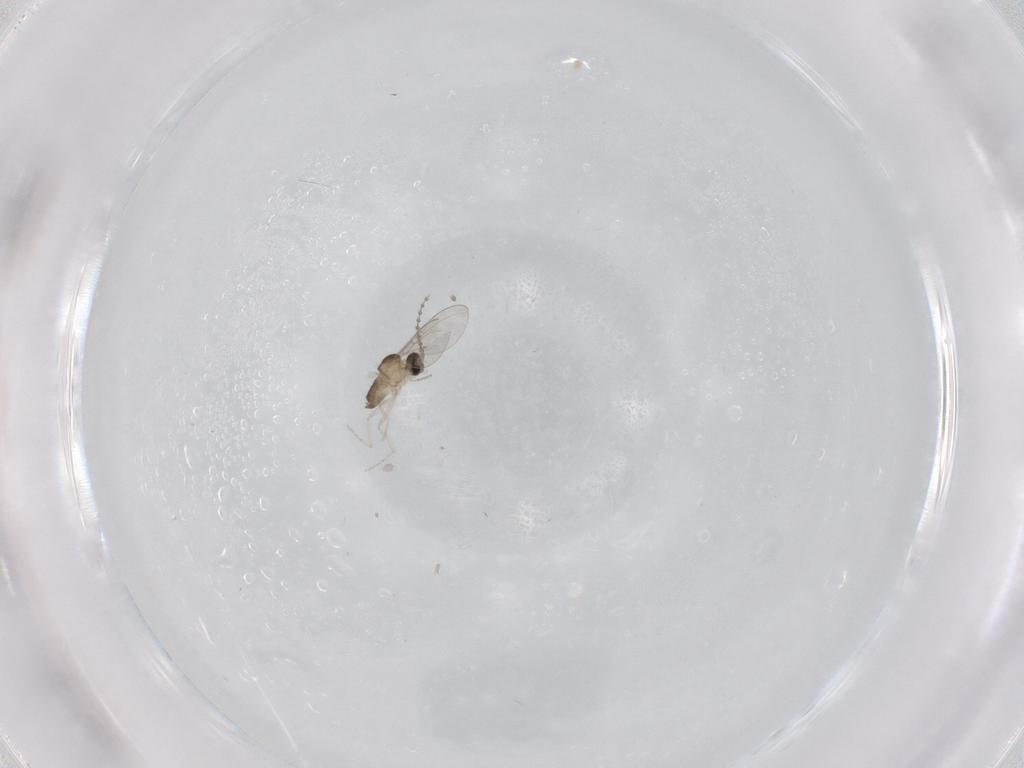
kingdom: Animalia
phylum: Arthropoda
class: Insecta
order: Diptera
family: Cecidomyiidae
